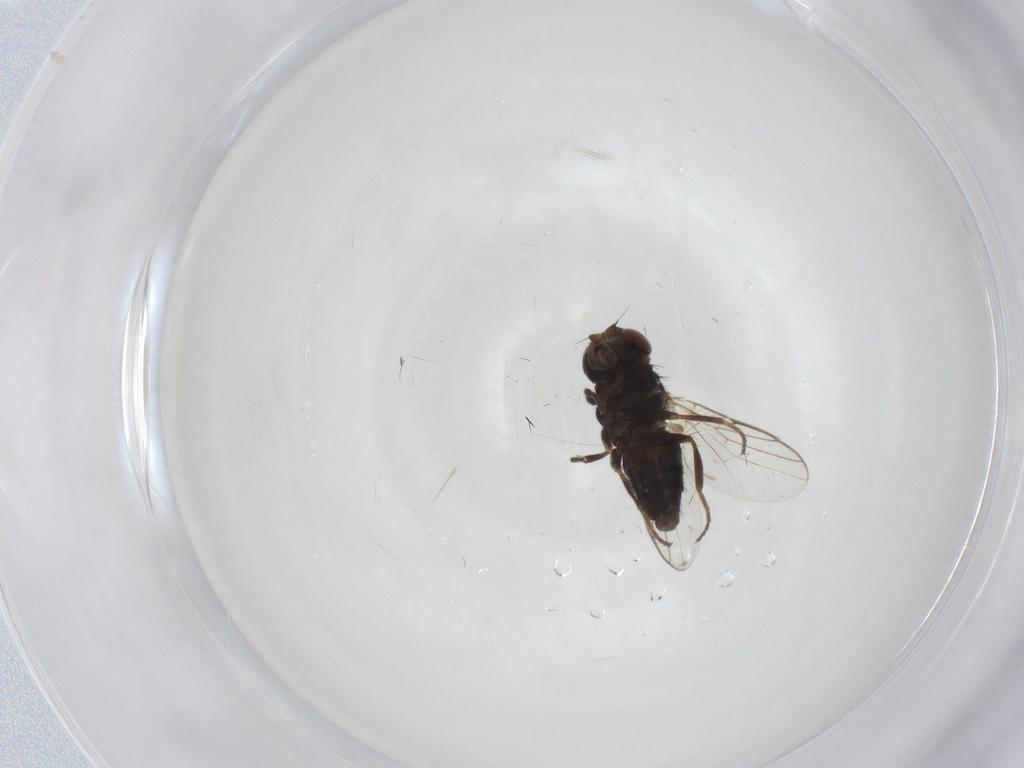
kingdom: Animalia
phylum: Arthropoda
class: Insecta
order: Diptera
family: Chloropidae
